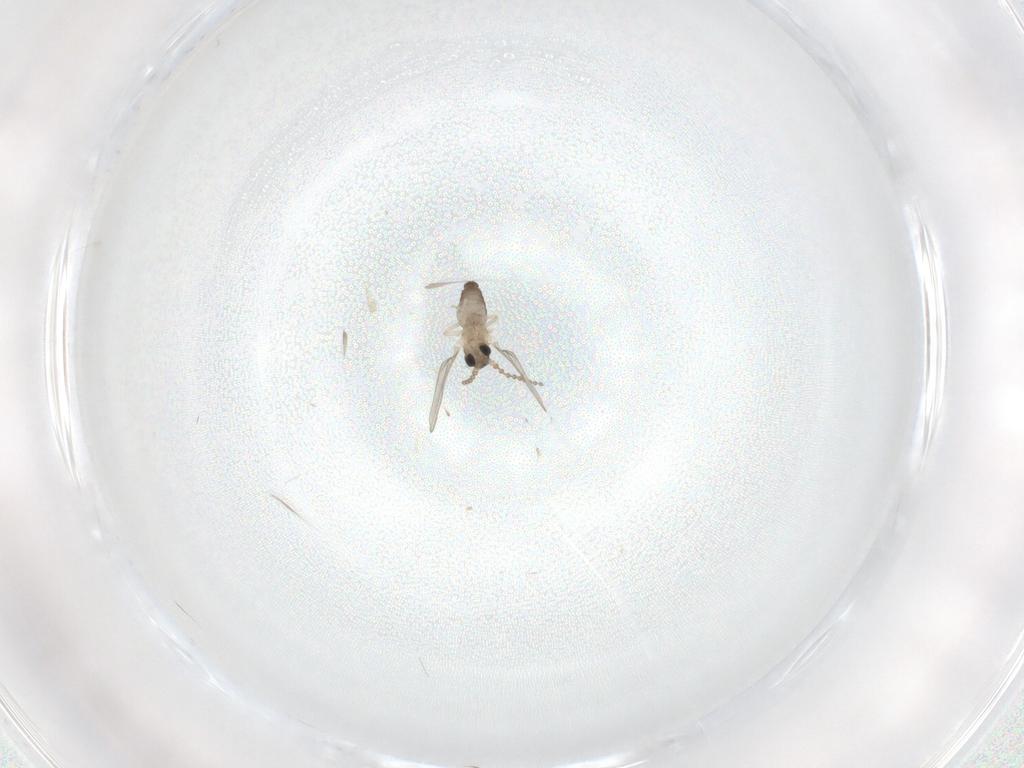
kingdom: Animalia
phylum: Arthropoda
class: Insecta
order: Diptera
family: Cecidomyiidae
